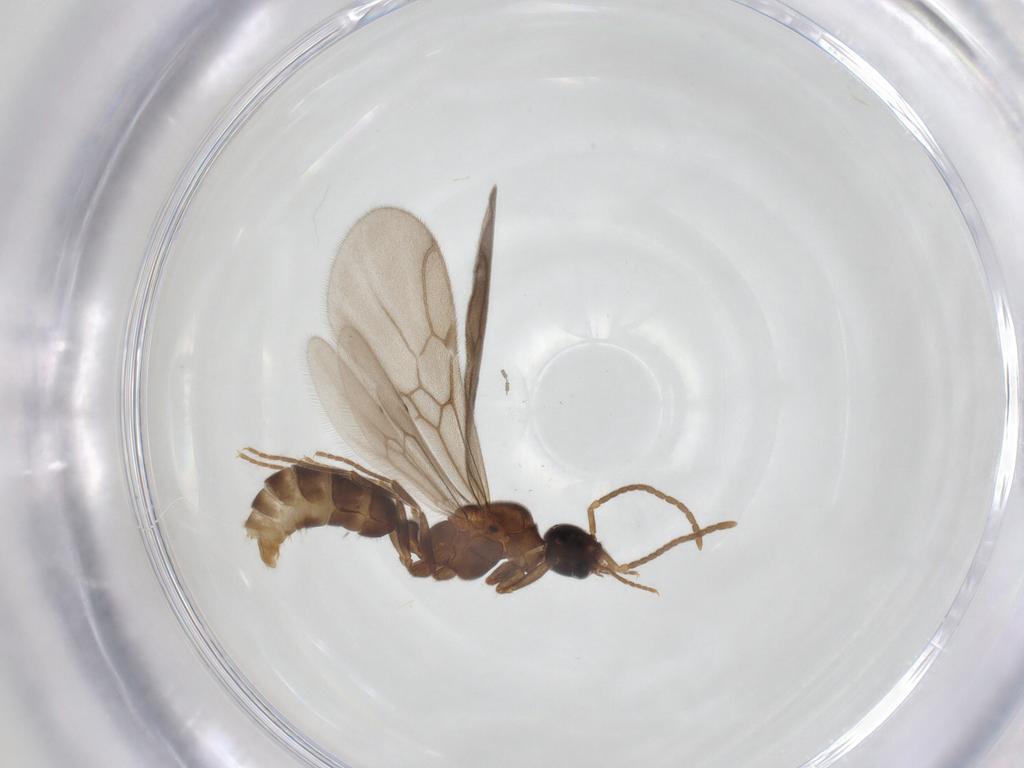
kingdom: Animalia
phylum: Arthropoda
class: Insecta
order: Hymenoptera
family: Formicidae
